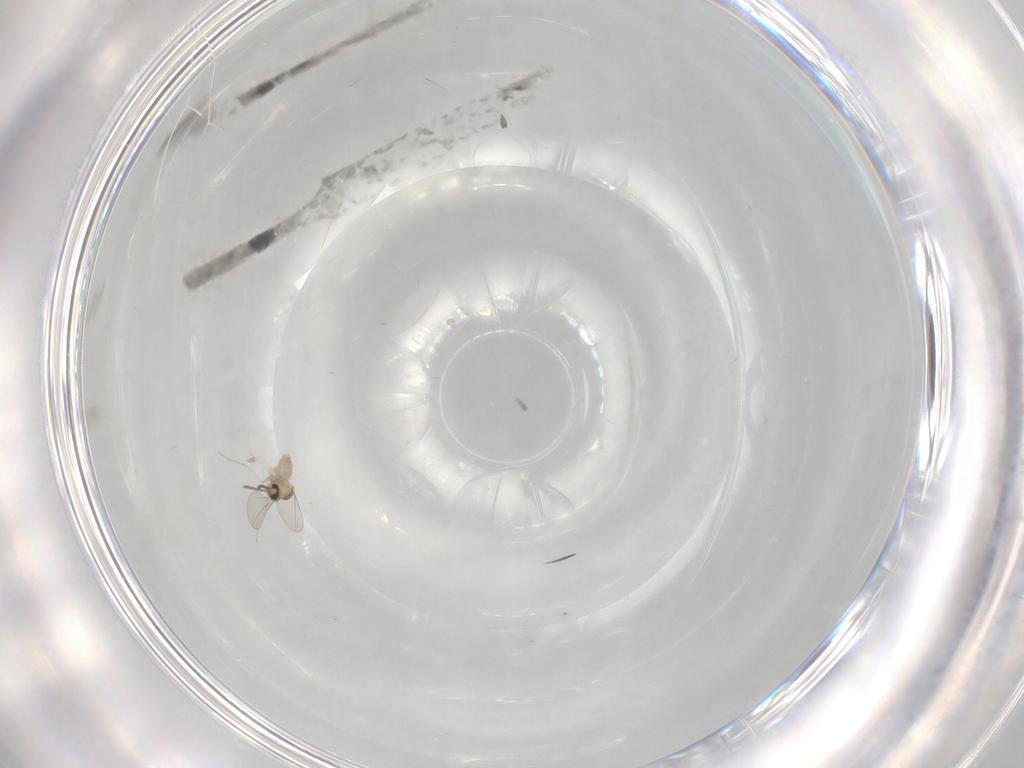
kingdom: Animalia
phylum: Arthropoda
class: Insecta
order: Diptera
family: Cecidomyiidae
